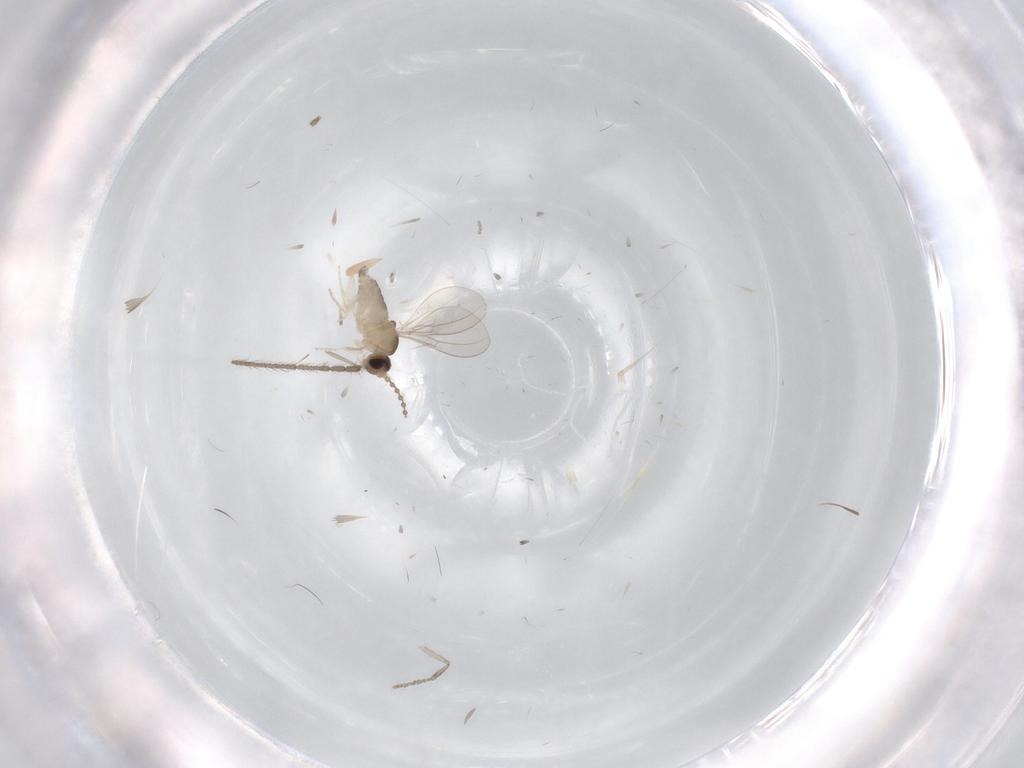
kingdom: Animalia
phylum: Arthropoda
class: Insecta
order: Diptera
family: Cecidomyiidae
